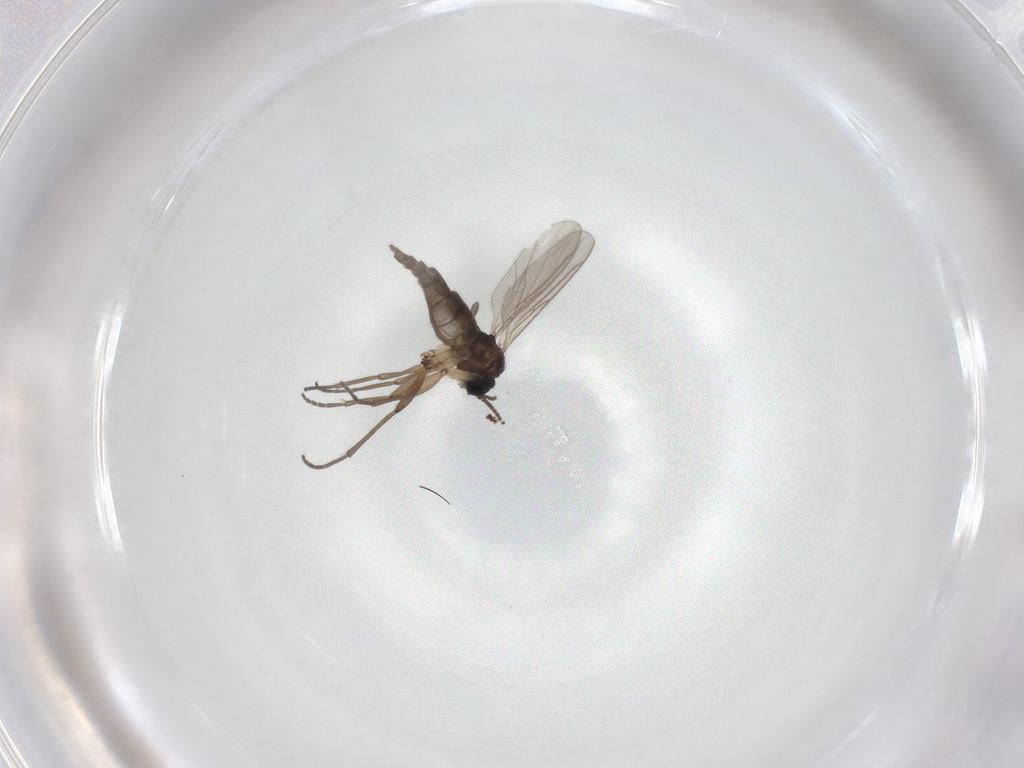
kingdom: Animalia
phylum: Arthropoda
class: Insecta
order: Diptera
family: Sciaridae
